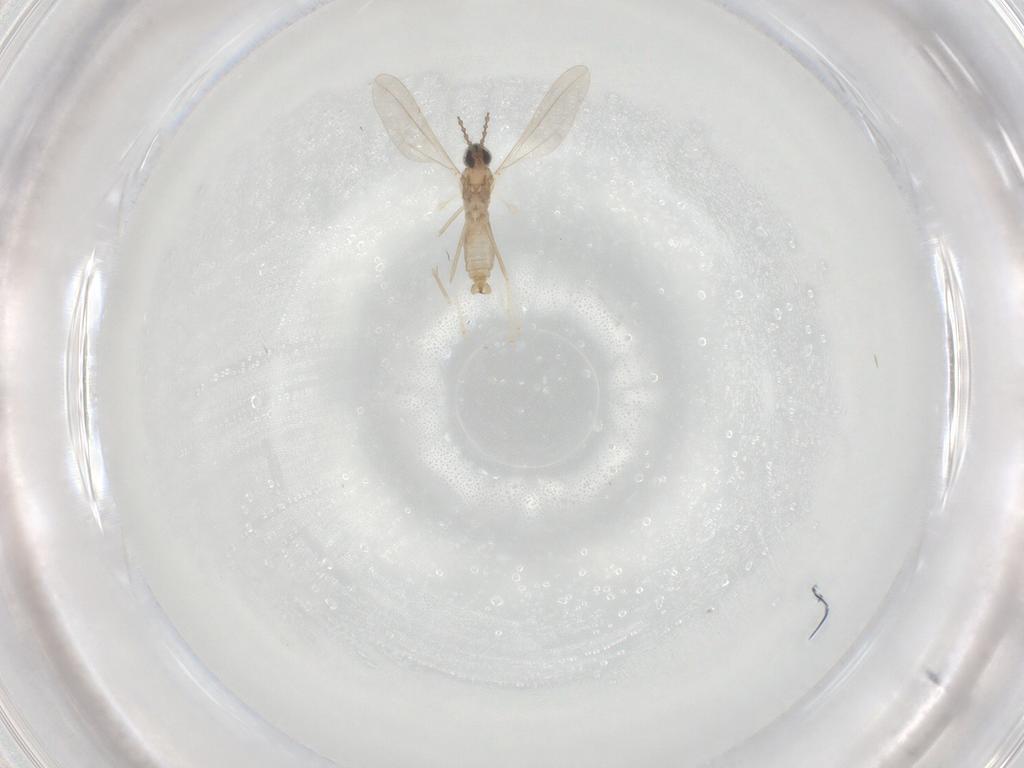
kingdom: Animalia
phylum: Arthropoda
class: Insecta
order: Diptera
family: Cecidomyiidae
